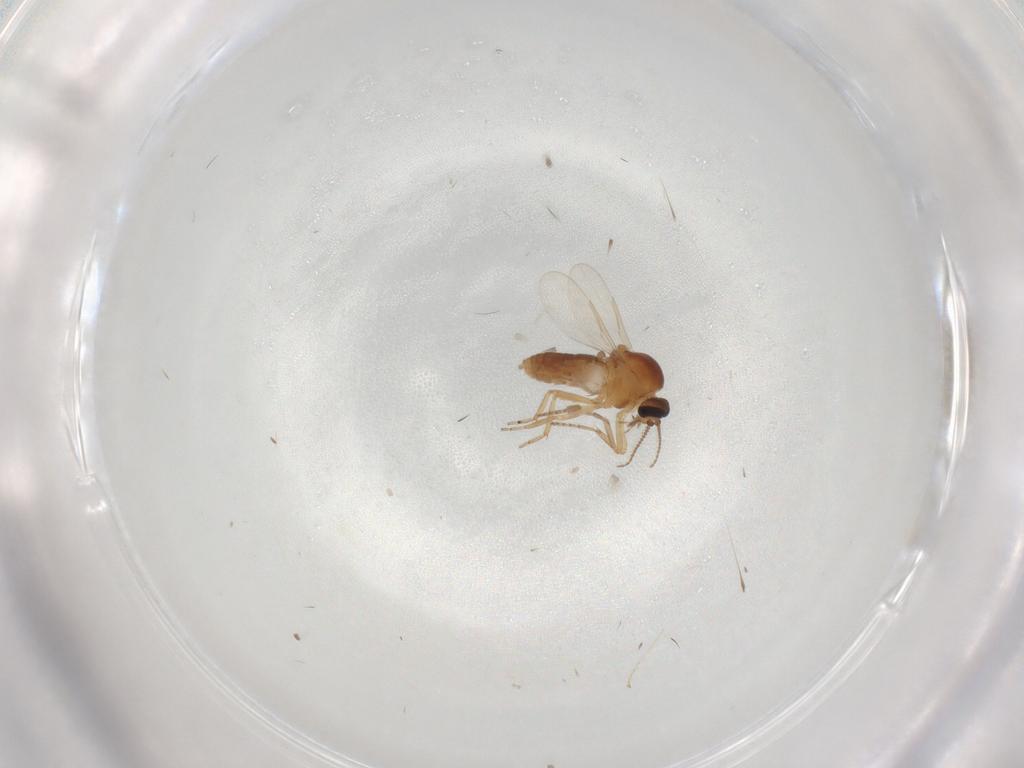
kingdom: Animalia
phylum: Arthropoda
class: Insecta
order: Diptera
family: Ceratopogonidae
